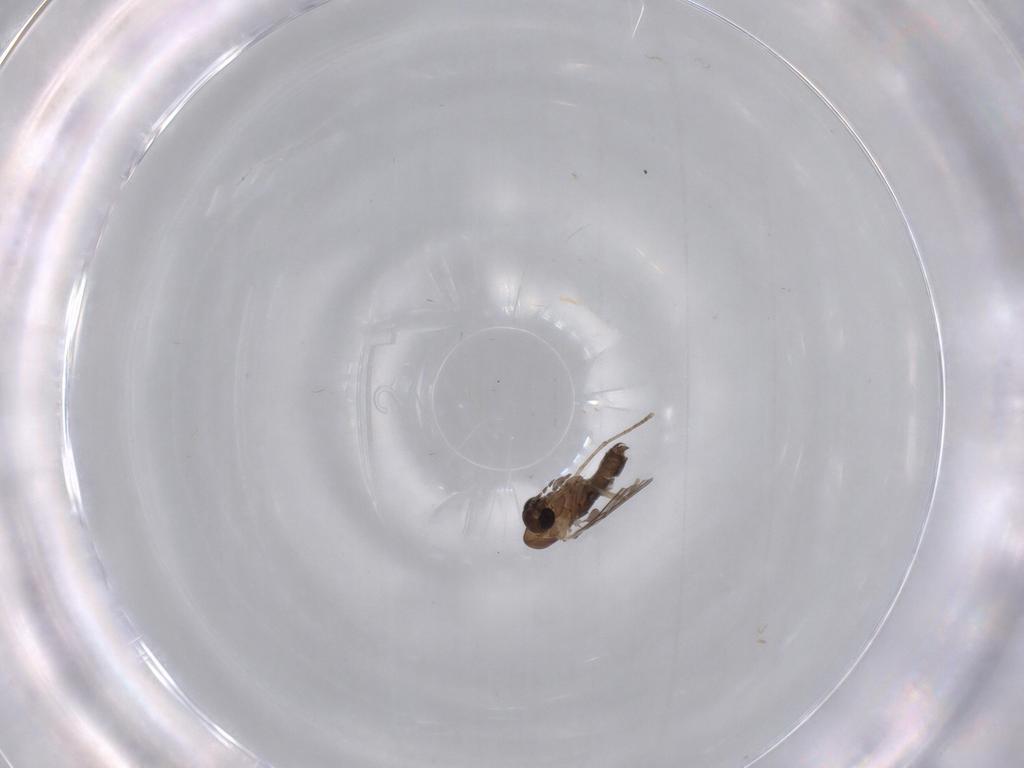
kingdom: Animalia
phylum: Arthropoda
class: Insecta
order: Diptera
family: Psychodidae
